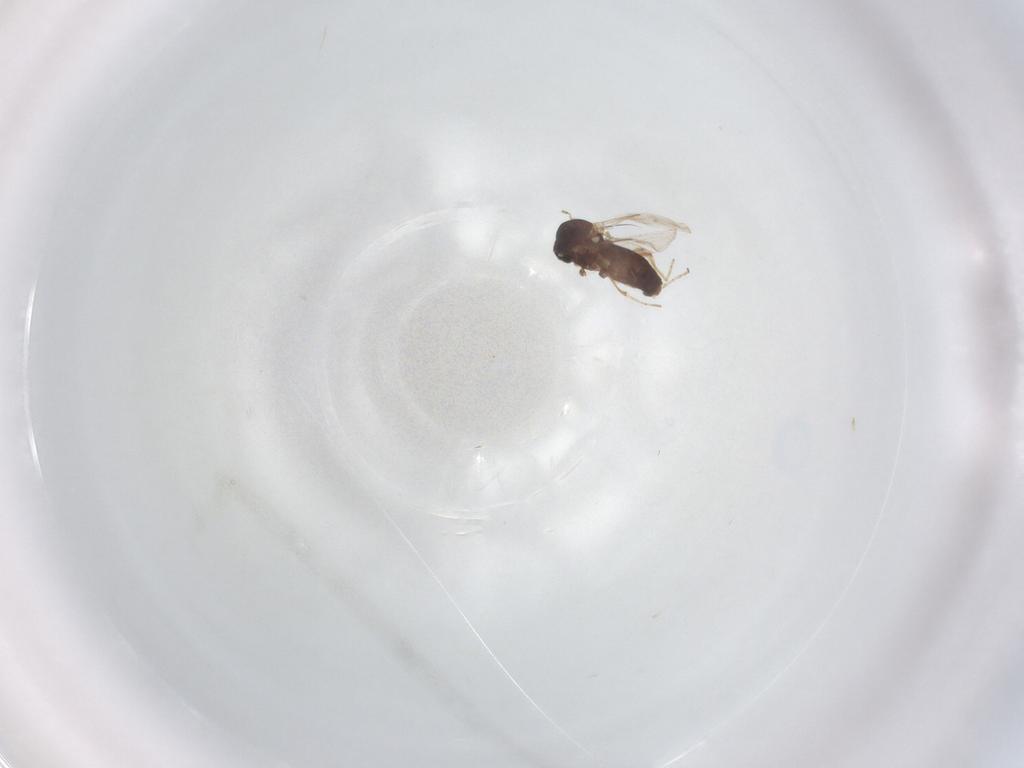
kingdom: Animalia
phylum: Arthropoda
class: Insecta
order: Diptera
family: Ceratopogonidae
